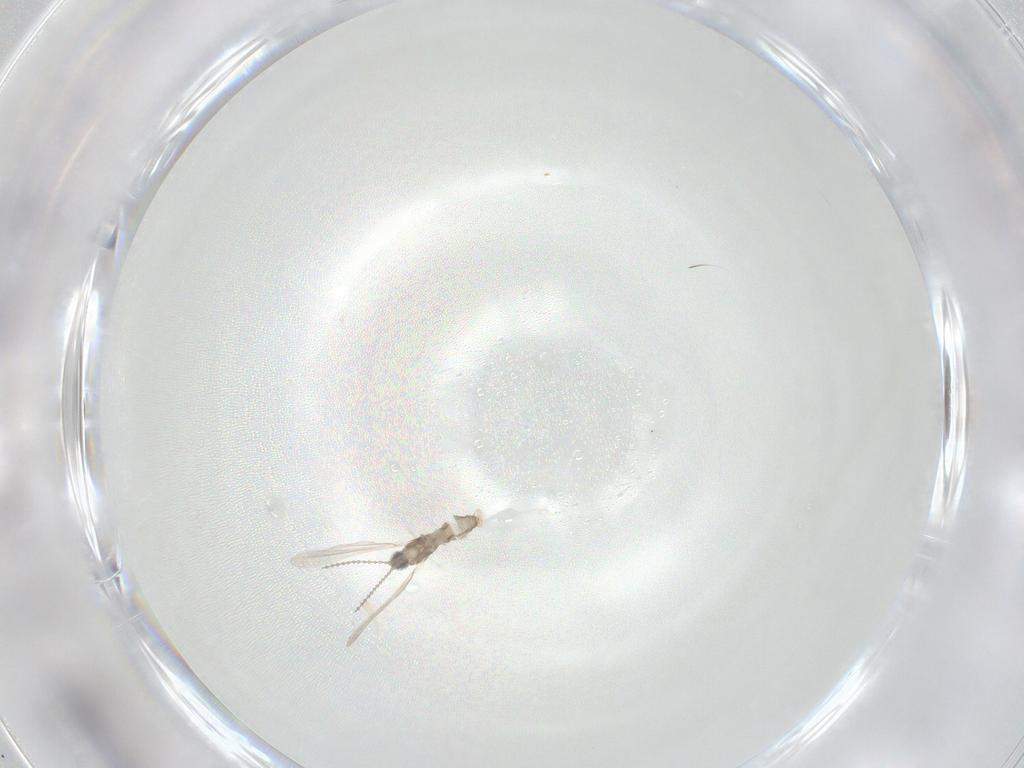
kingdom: Animalia
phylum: Arthropoda
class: Insecta
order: Diptera
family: Cecidomyiidae
